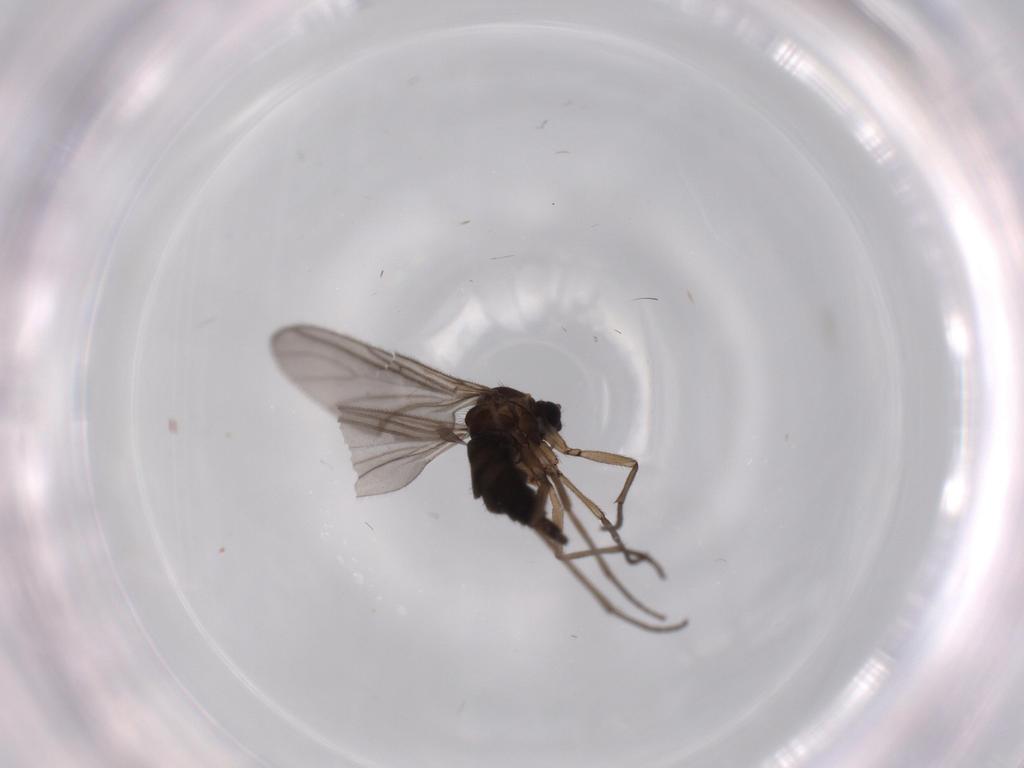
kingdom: Animalia
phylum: Arthropoda
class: Insecta
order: Diptera
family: Sciaridae
